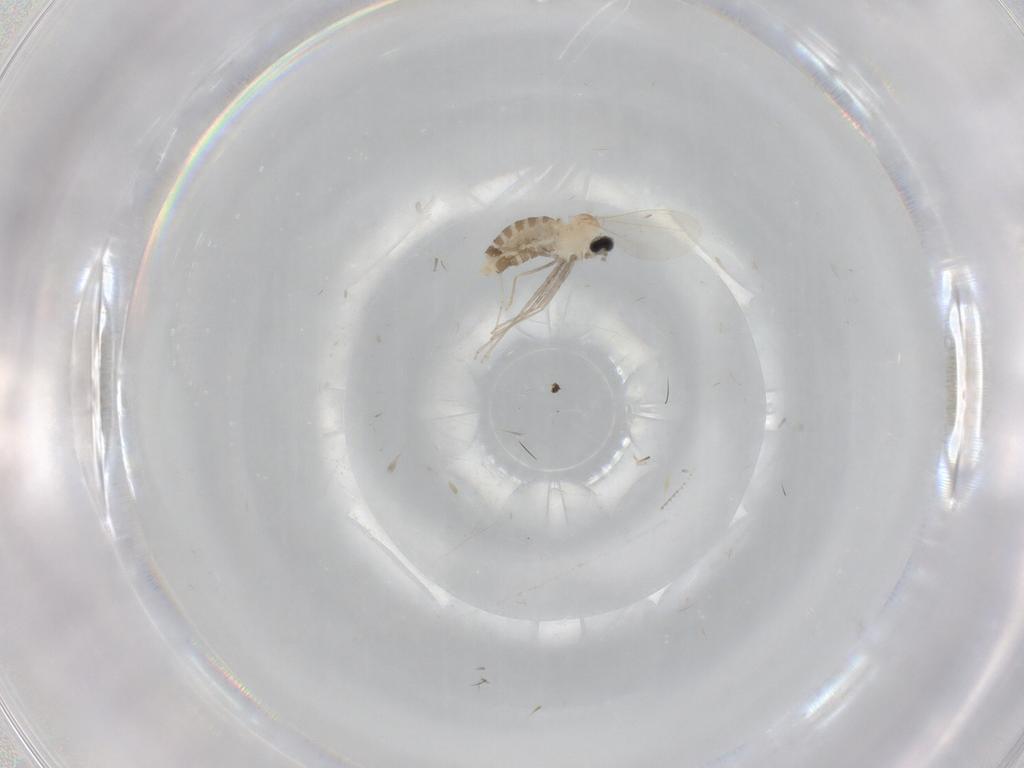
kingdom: Animalia
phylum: Arthropoda
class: Insecta
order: Diptera
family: Cecidomyiidae
